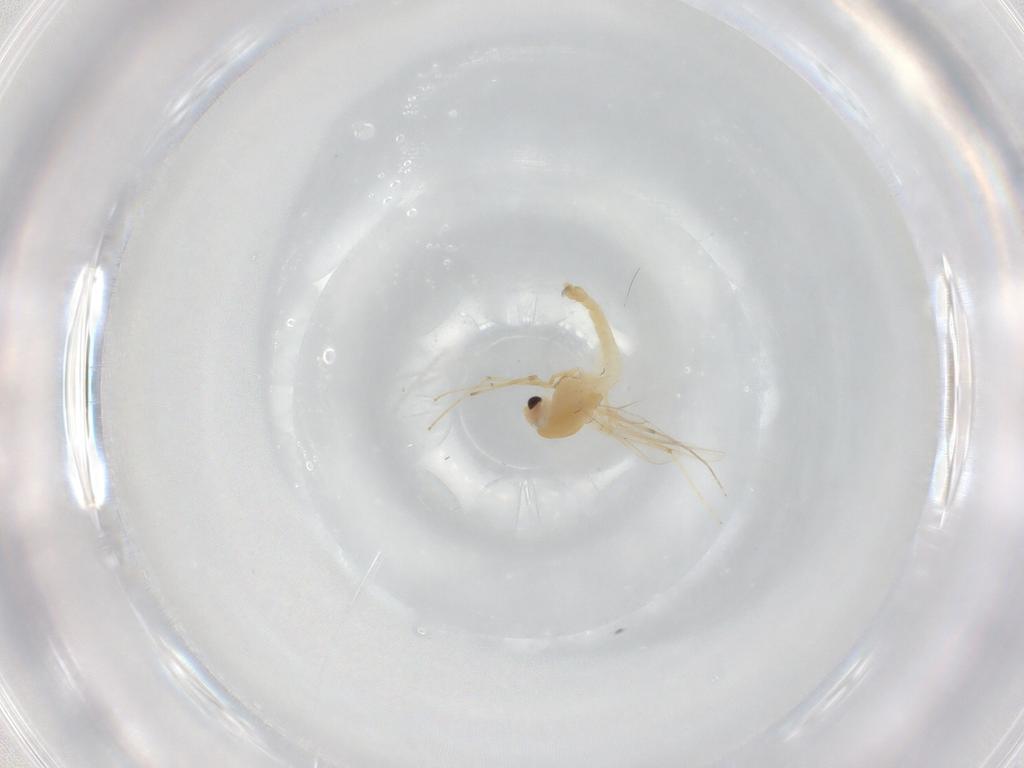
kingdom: Animalia
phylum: Arthropoda
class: Insecta
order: Diptera
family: Chironomidae
